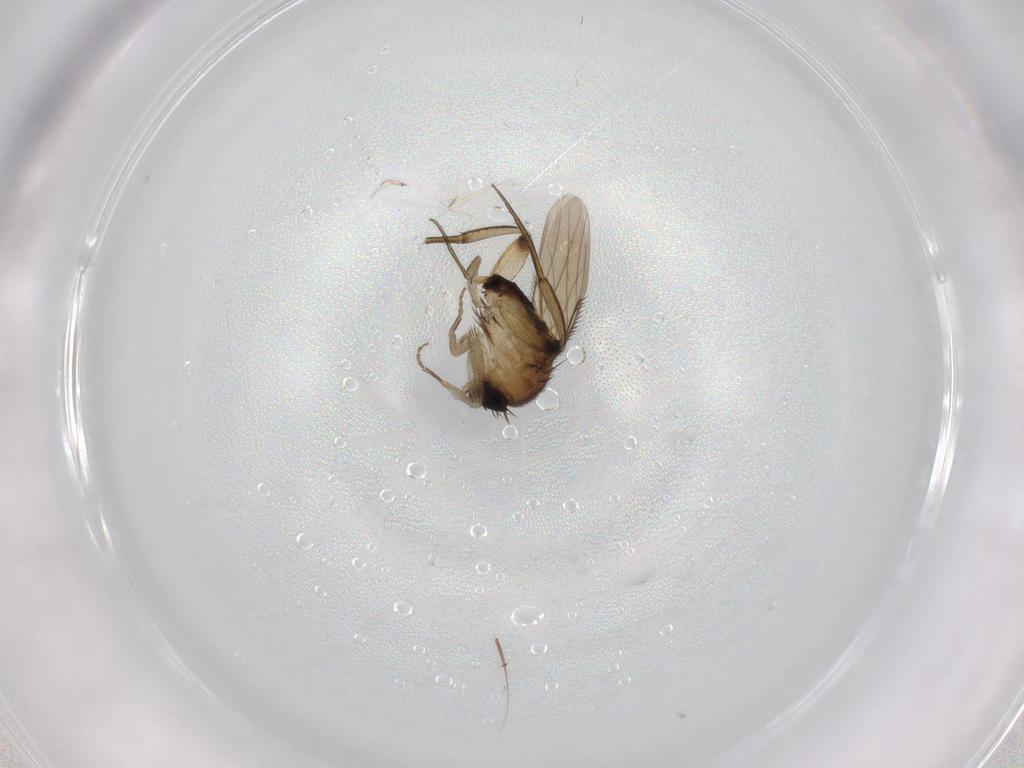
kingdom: Animalia
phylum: Arthropoda
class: Insecta
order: Diptera
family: Phoridae
